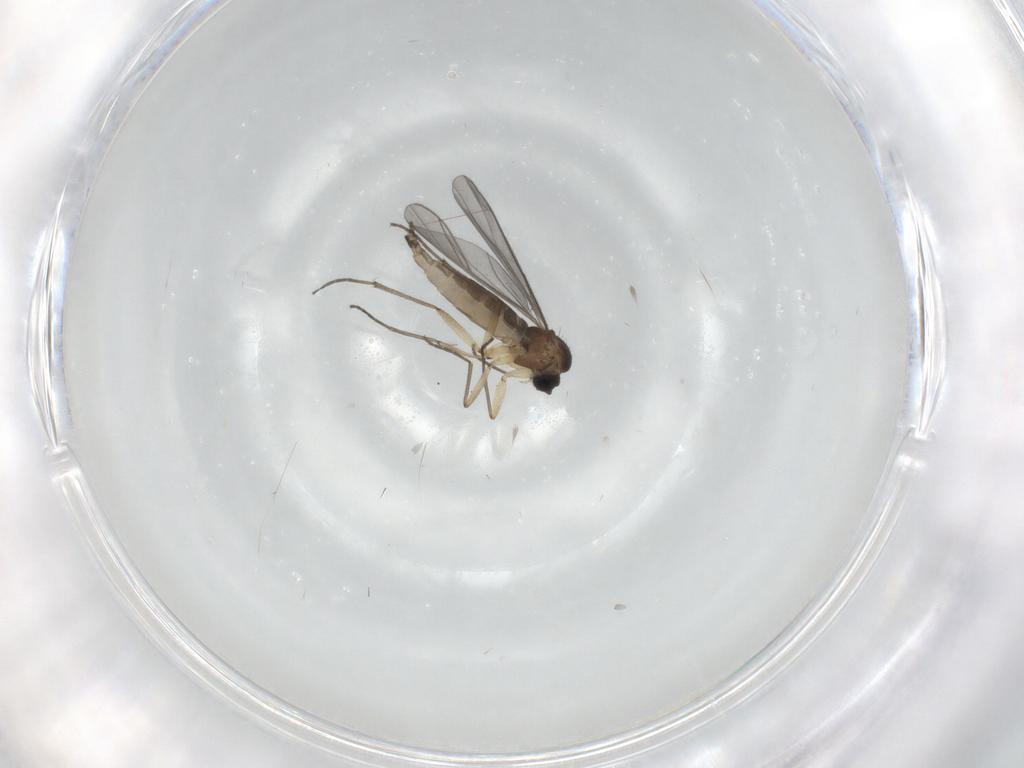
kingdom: Animalia
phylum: Arthropoda
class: Insecta
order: Diptera
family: Sciaridae
